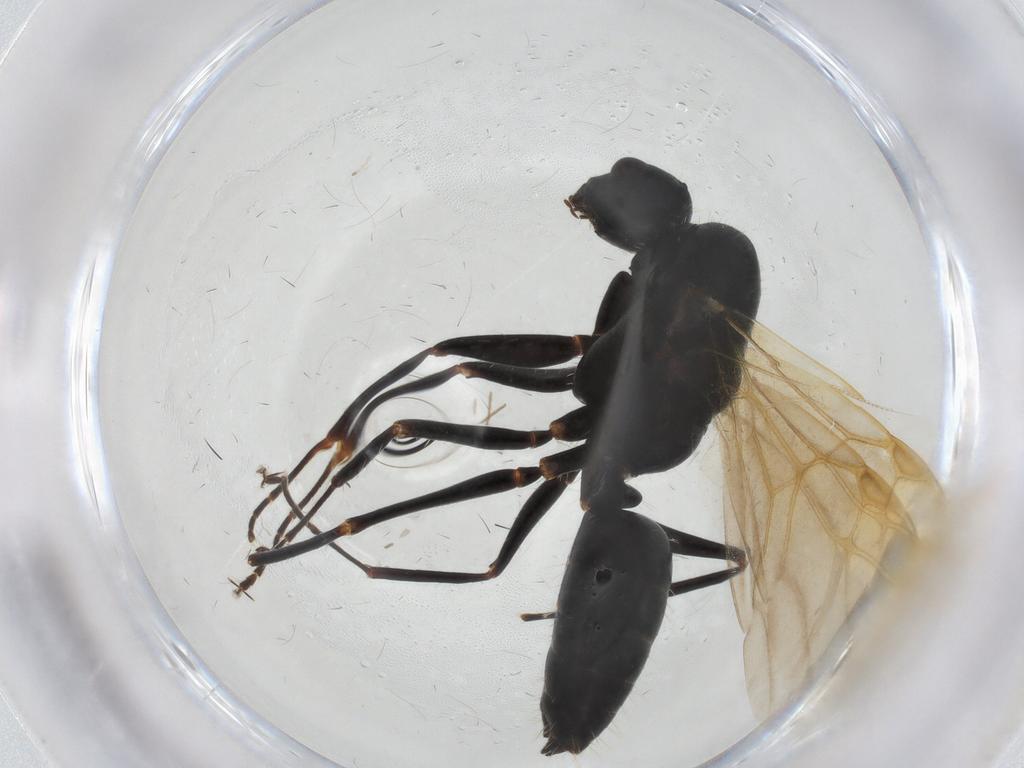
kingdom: Animalia
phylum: Arthropoda
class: Insecta
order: Hymenoptera
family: Formicidae
